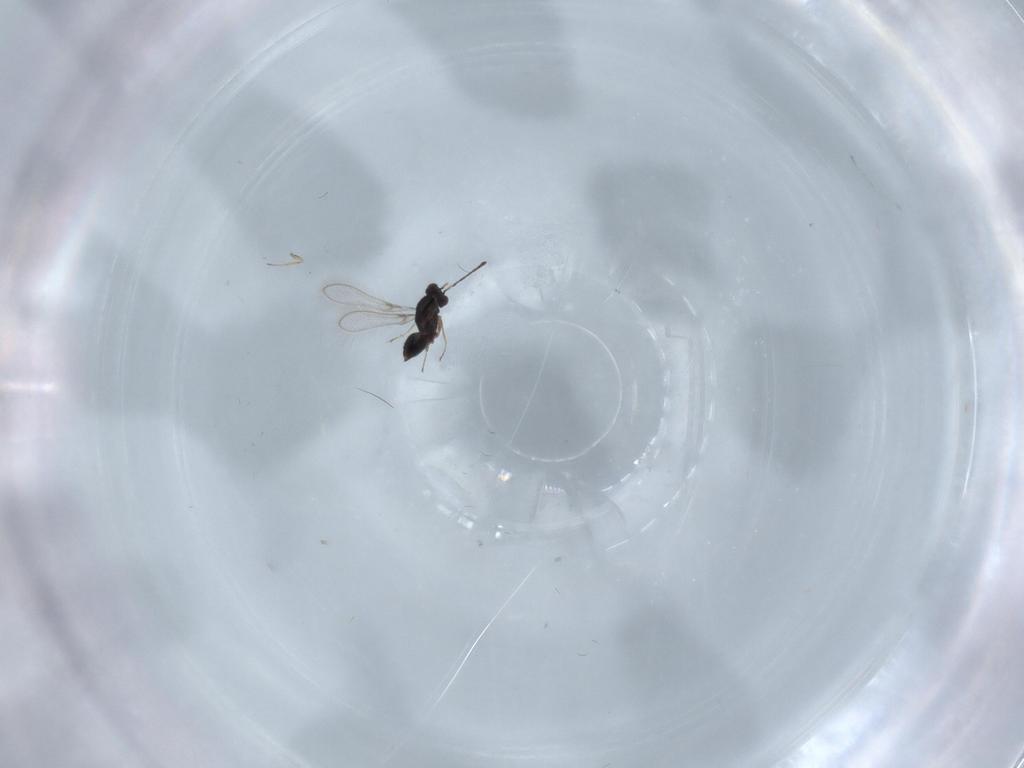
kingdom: Animalia
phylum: Arthropoda
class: Insecta
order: Hymenoptera
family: Mymaridae
